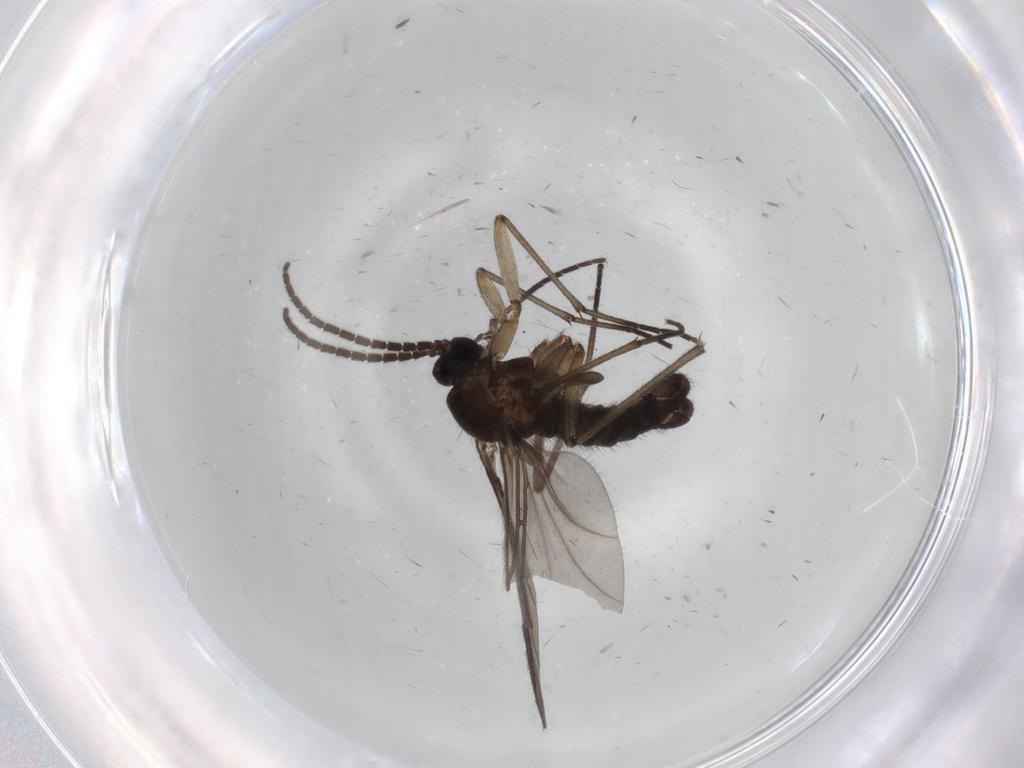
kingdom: Animalia
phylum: Arthropoda
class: Insecta
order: Diptera
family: Sciaridae
